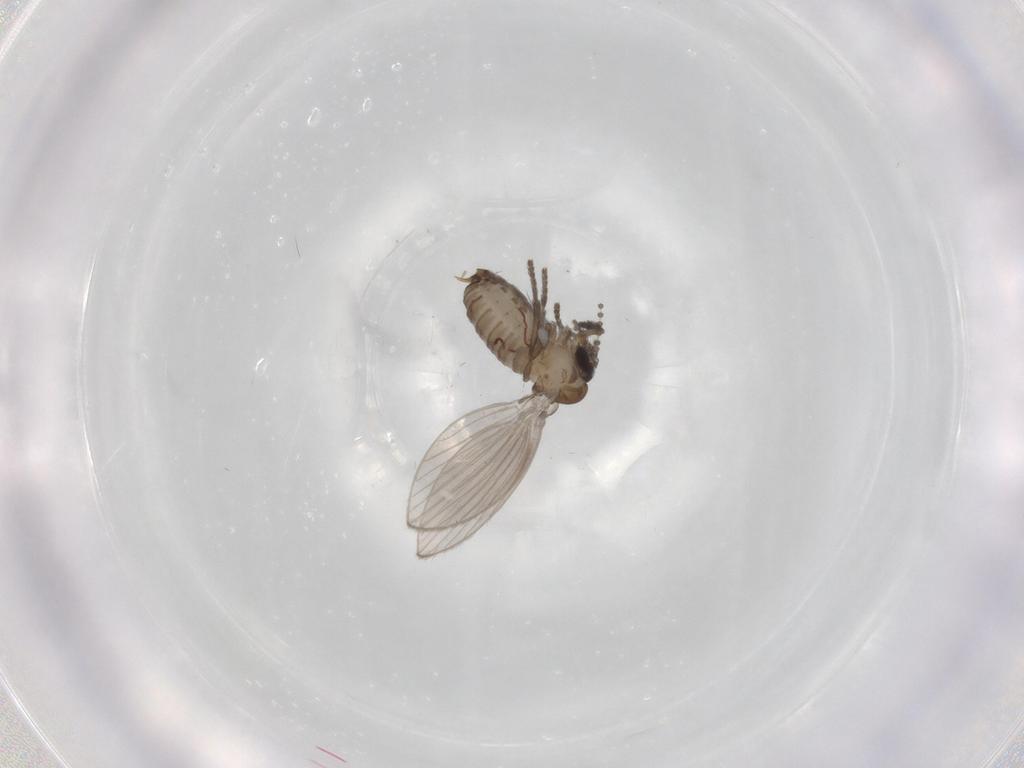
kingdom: Animalia
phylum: Arthropoda
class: Insecta
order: Diptera
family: Psychodidae
